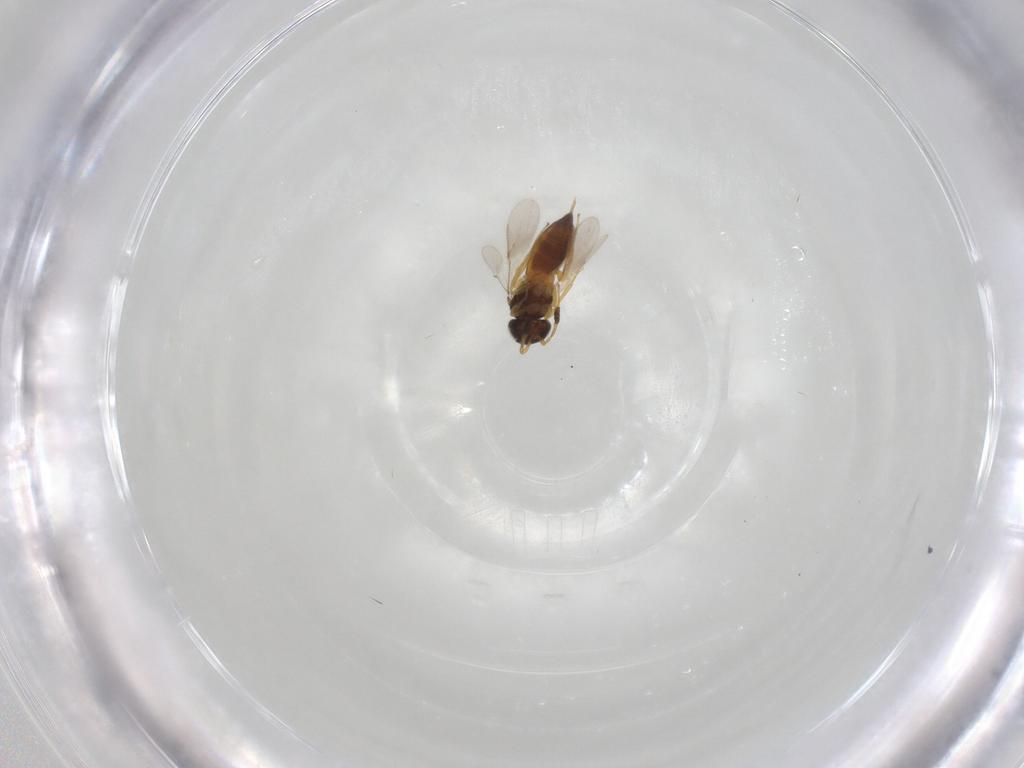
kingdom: Animalia
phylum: Arthropoda
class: Insecta
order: Hymenoptera
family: Scelionidae
